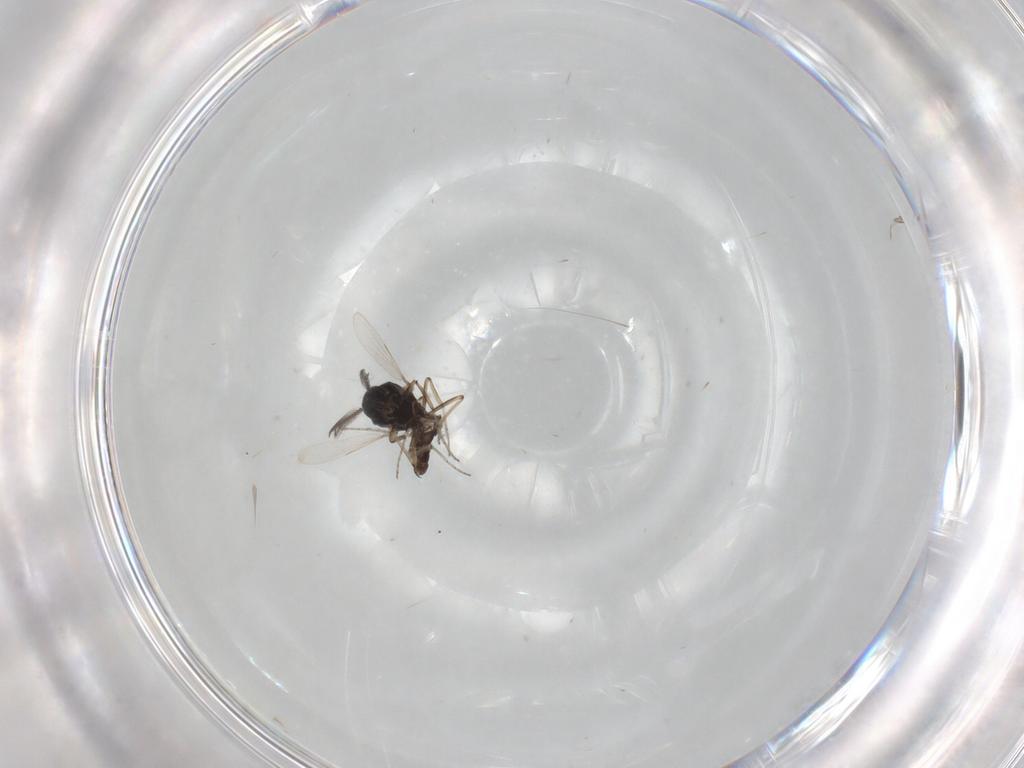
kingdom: Animalia
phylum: Arthropoda
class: Insecta
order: Diptera
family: Ceratopogonidae
